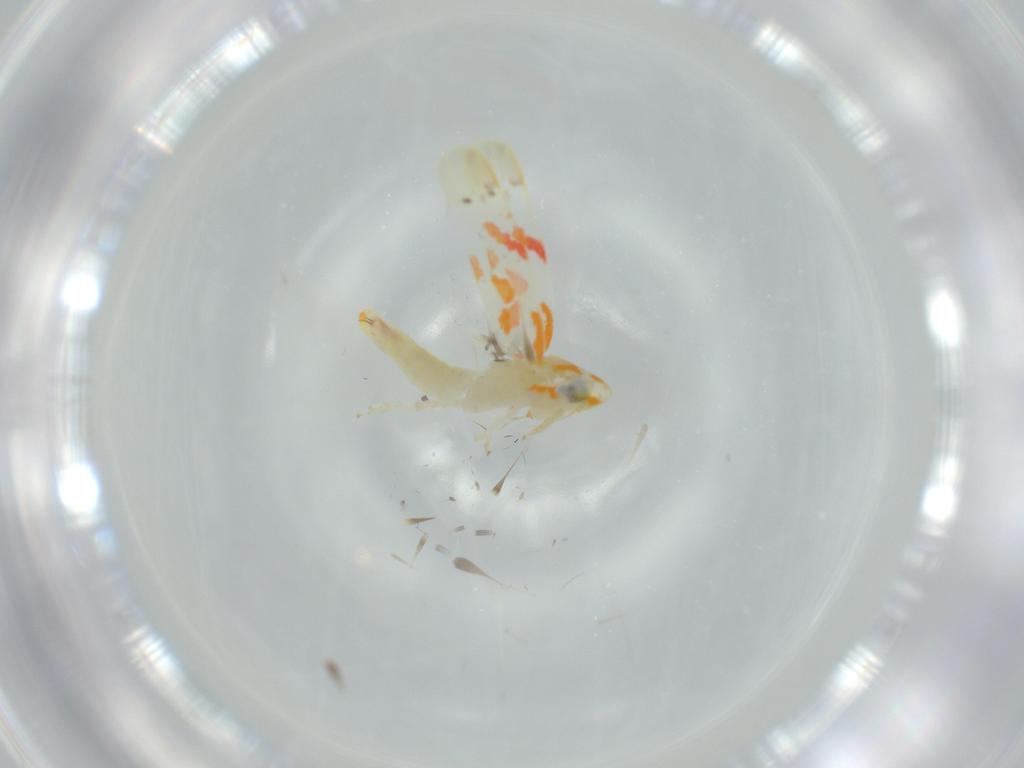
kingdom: Animalia
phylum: Arthropoda
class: Insecta
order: Hemiptera
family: Cicadellidae
